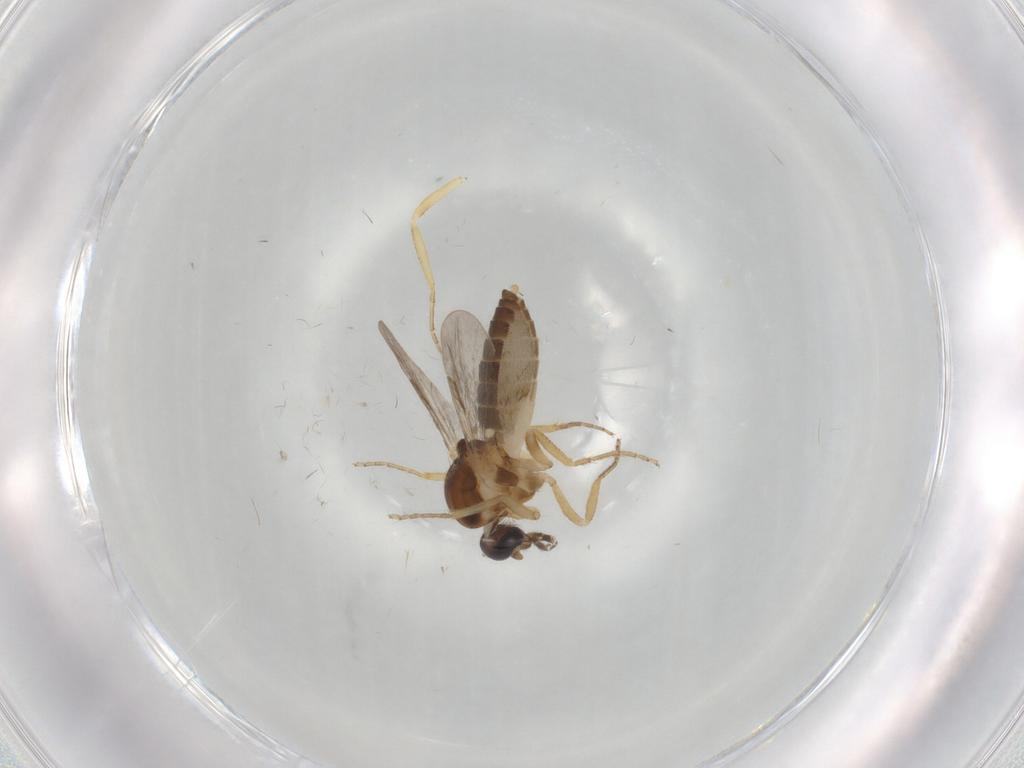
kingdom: Animalia
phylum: Arthropoda
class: Insecta
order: Diptera
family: Ceratopogonidae
